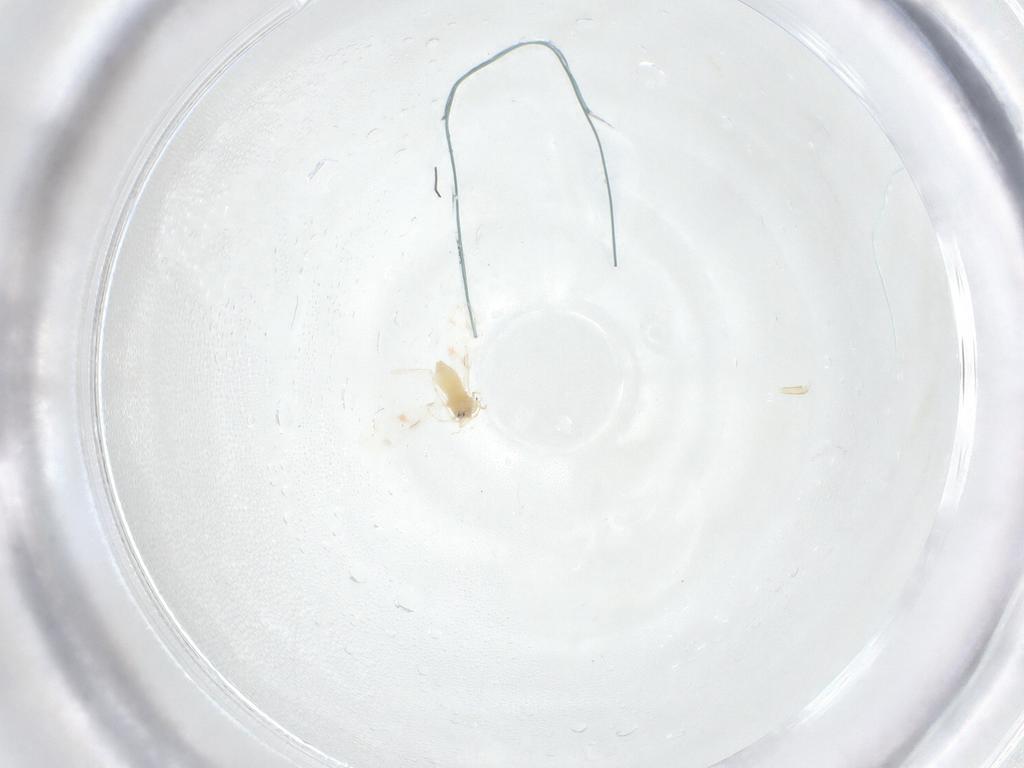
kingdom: Animalia
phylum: Arthropoda
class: Insecta
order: Hemiptera
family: Aleyrodidae
